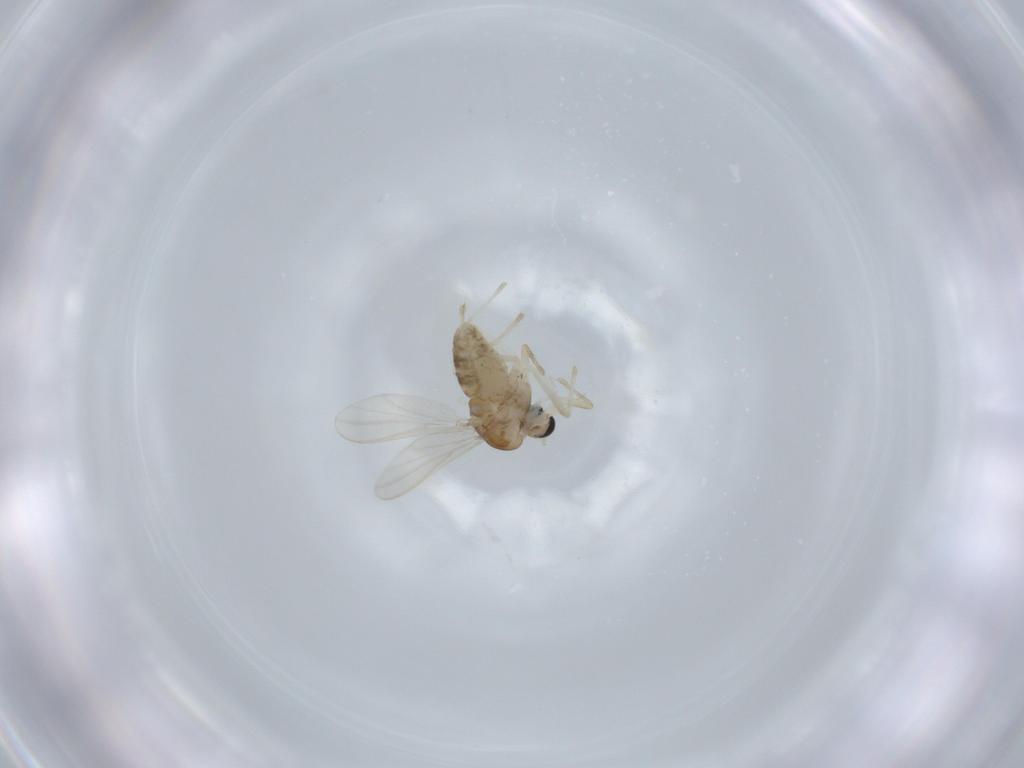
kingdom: Animalia
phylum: Arthropoda
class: Insecta
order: Diptera
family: Chironomidae
